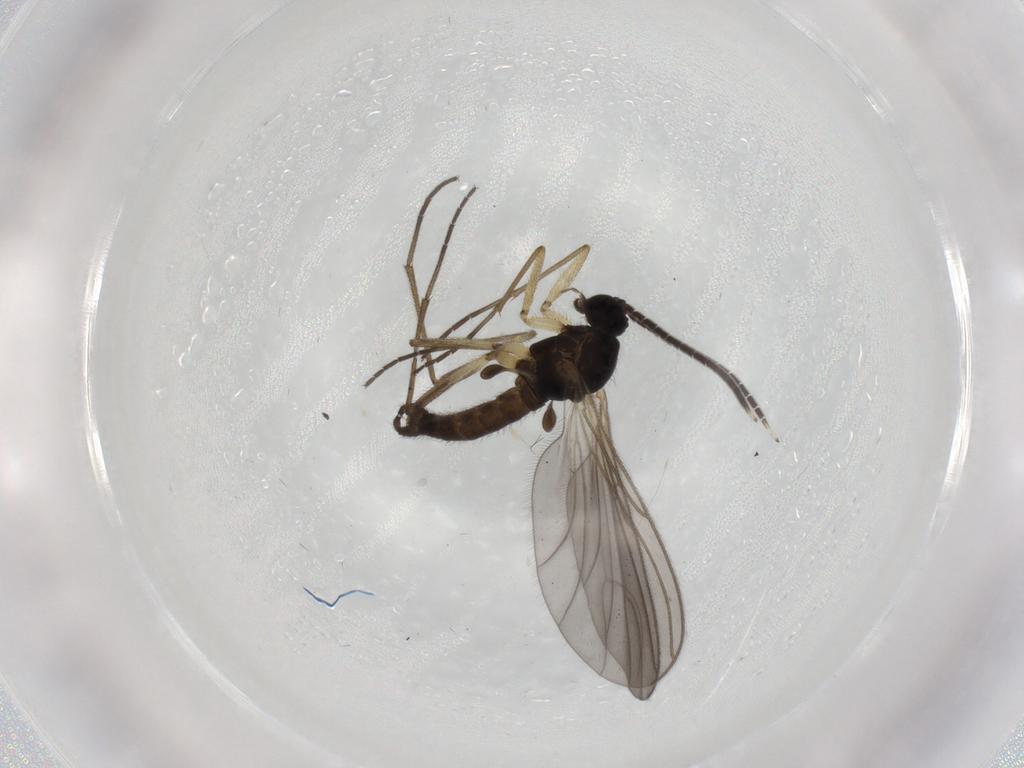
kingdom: Animalia
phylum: Arthropoda
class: Insecta
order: Diptera
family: Sciaridae
